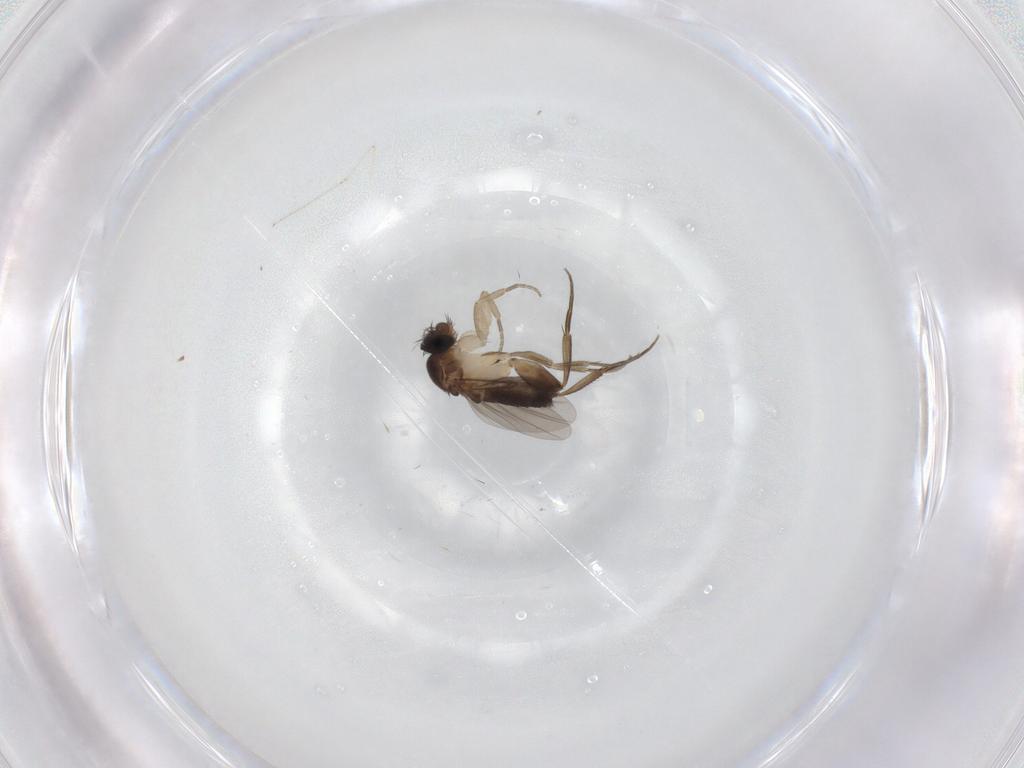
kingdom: Animalia
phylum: Arthropoda
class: Insecta
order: Diptera
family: Phoridae
